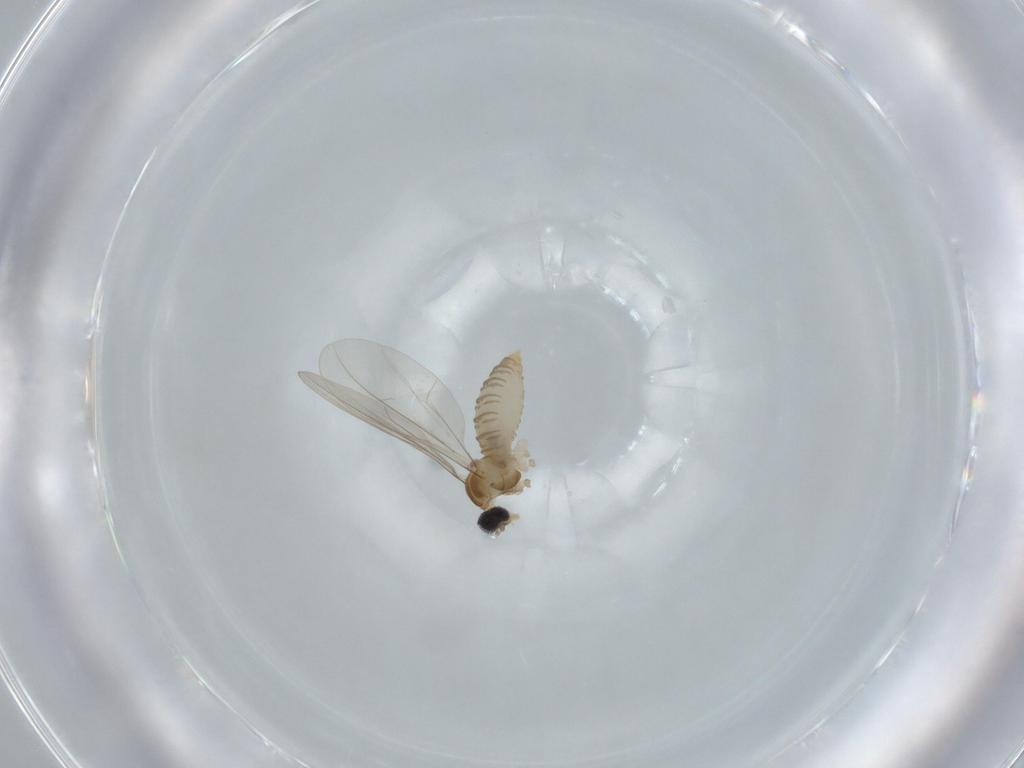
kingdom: Animalia
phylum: Arthropoda
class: Insecta
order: Diptera
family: Cecidomyiidae
